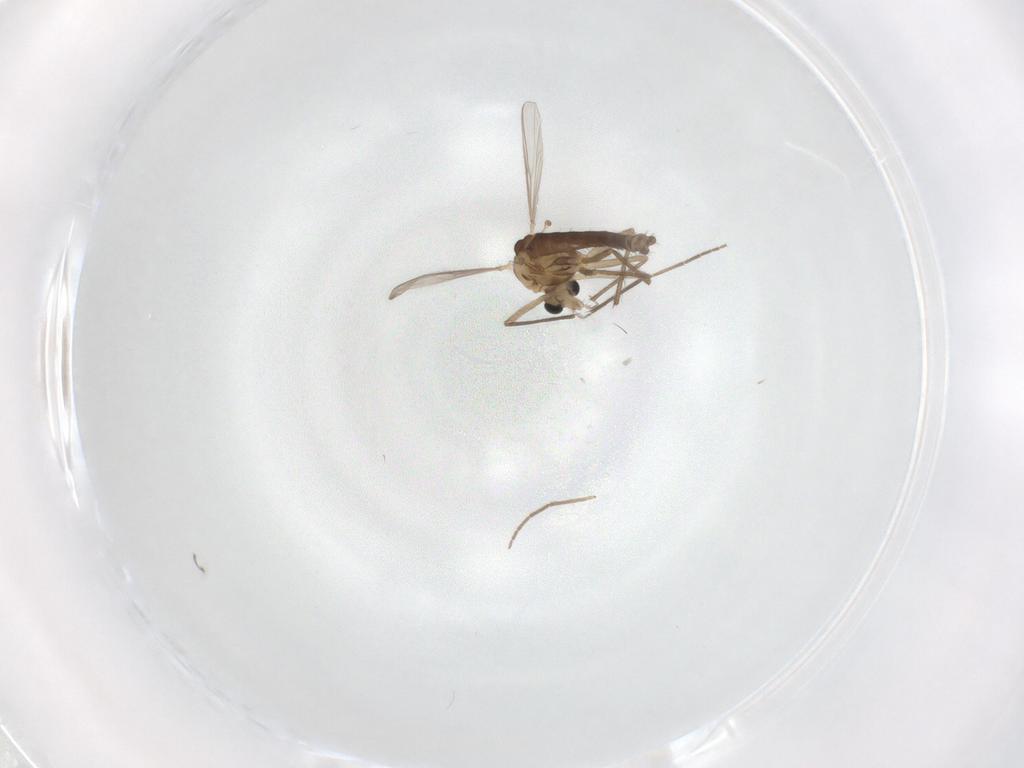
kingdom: Animalia
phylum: Arthropoda
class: Insecta
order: Diptera
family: Chironomidae
